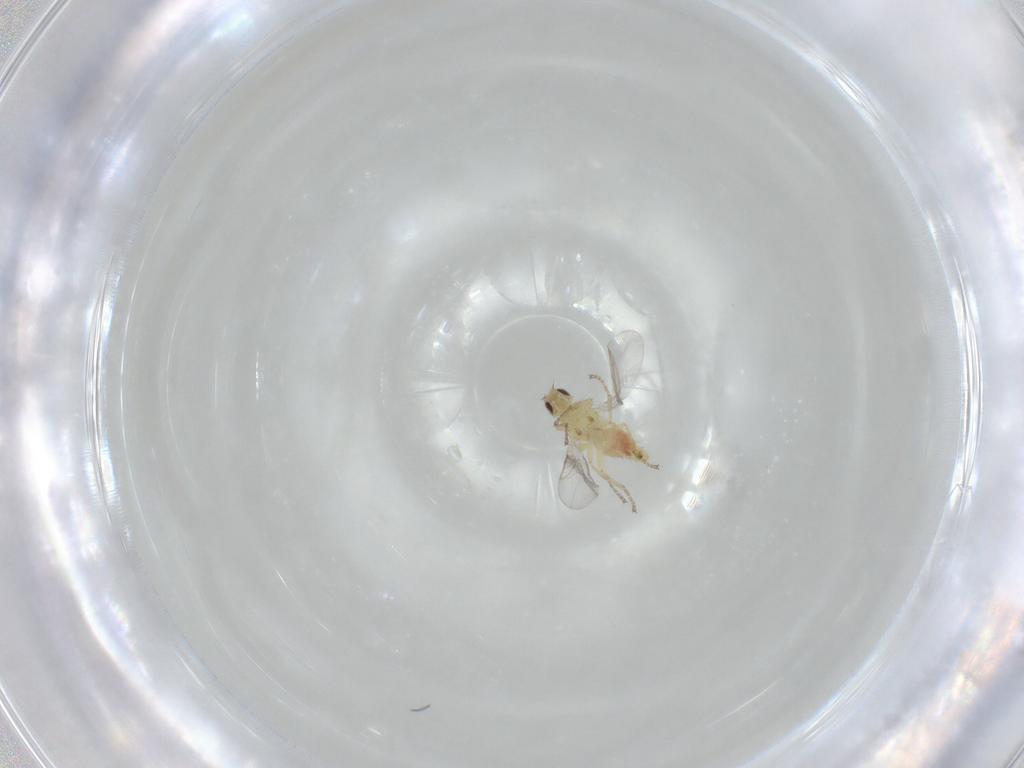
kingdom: Animalia
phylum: Arthropoda
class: Insecta
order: Diptera
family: Agromyzidae
